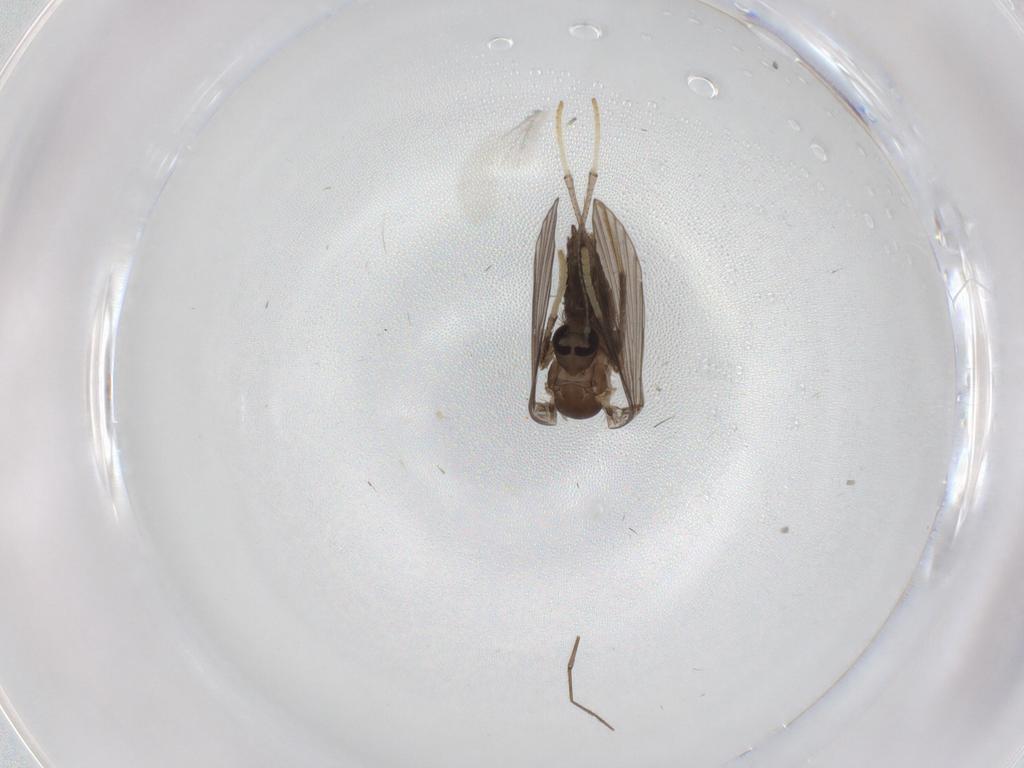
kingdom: Animalia
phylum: Arthropoda
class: Insecta
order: Diptera
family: Cecidomyiidae
